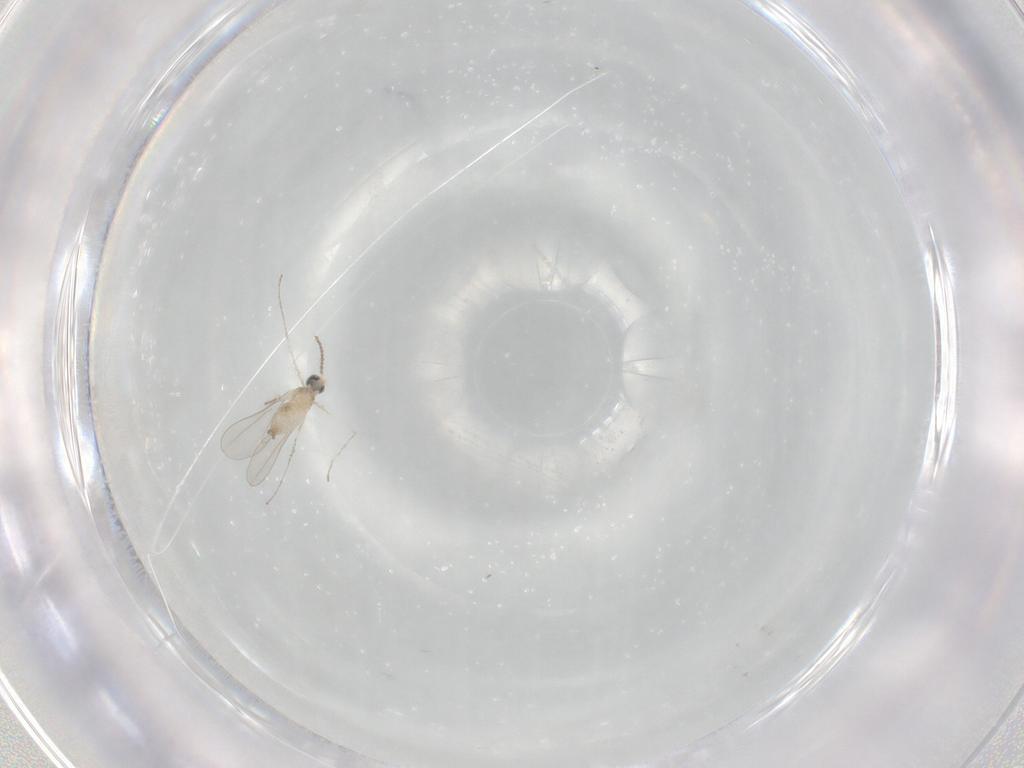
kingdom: Animalia
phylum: Arthropoda
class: Insecta
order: Diptera
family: Cecidomyiidae
